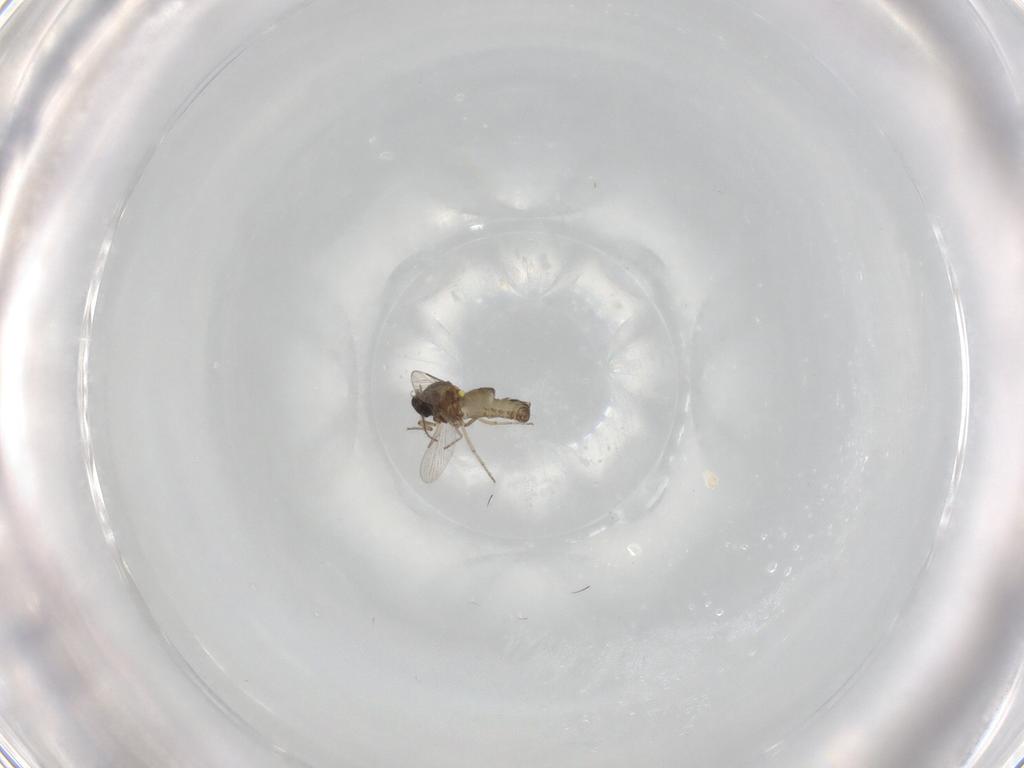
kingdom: Animalia
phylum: Arthropoda
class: Insecta
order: Diptera
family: Ceratopogonidae
